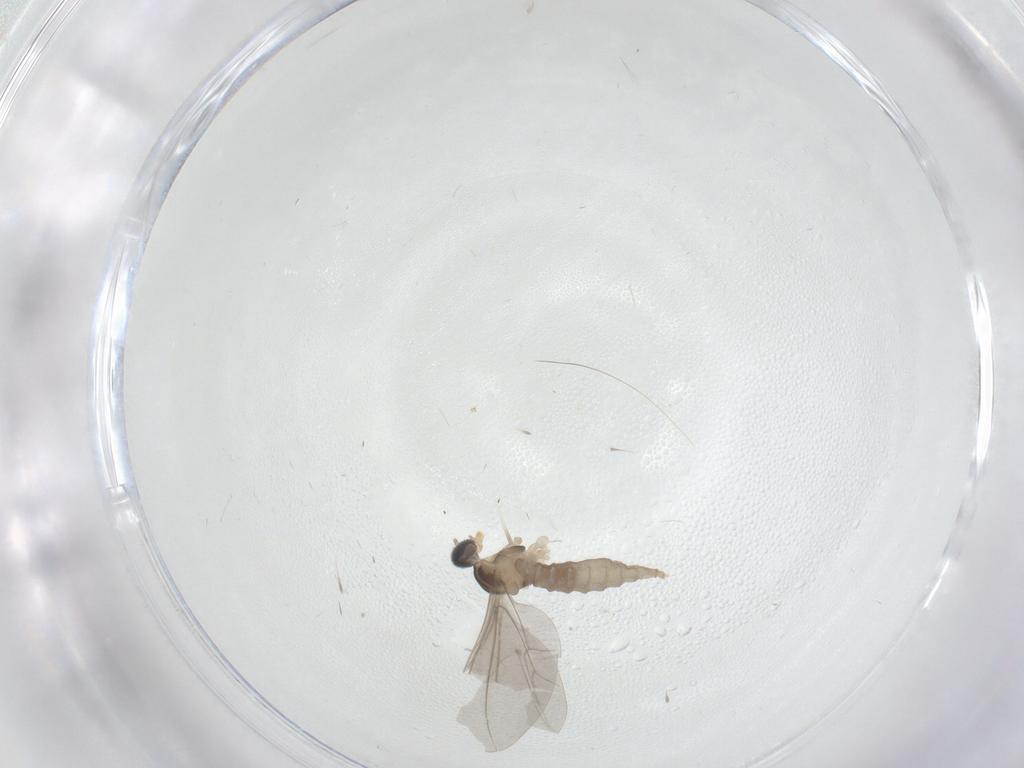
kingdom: Animalia
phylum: Arthropoda
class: Insecta
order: Diptera
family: Cecidomyiidae
